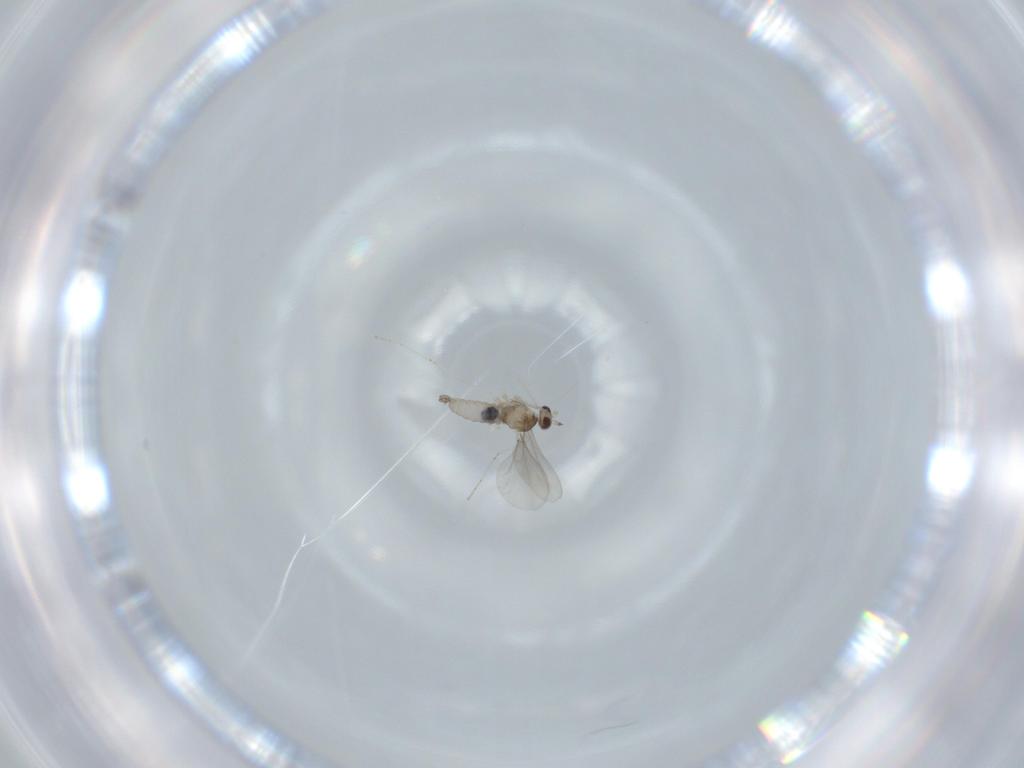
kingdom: Animalia
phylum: Arthropoda
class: Insecta
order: Diptera
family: Cecidomyiidae
